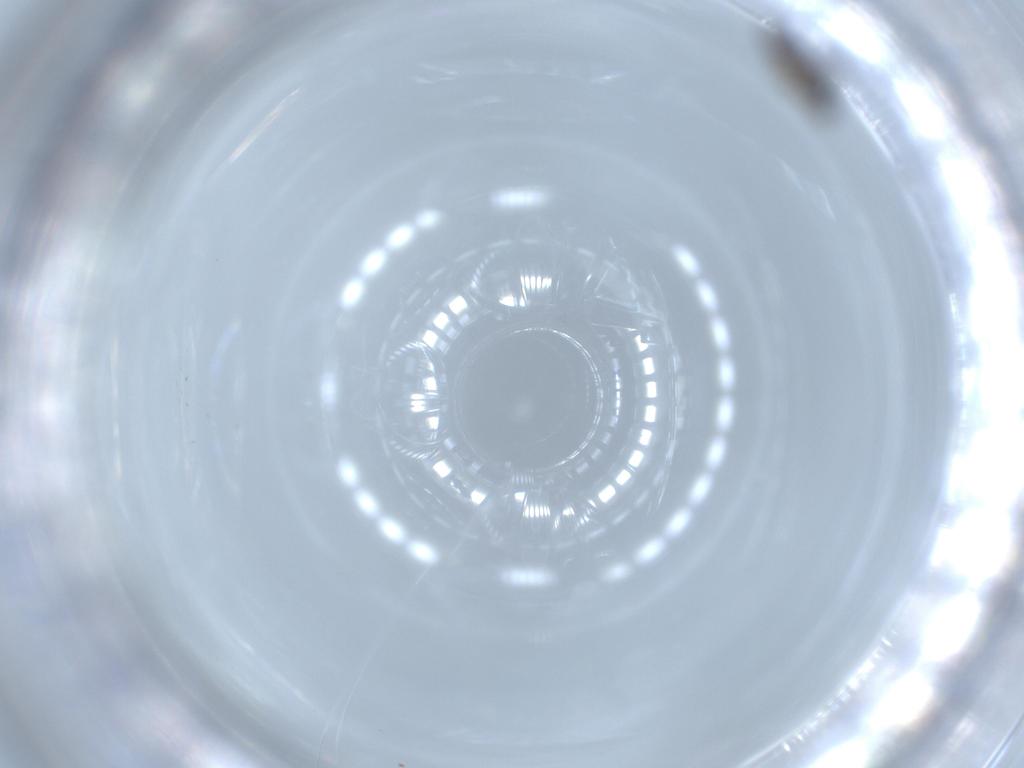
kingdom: Animalia
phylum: Arthropoda
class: Insecta
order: Diptera
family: Cecidomyiidae
